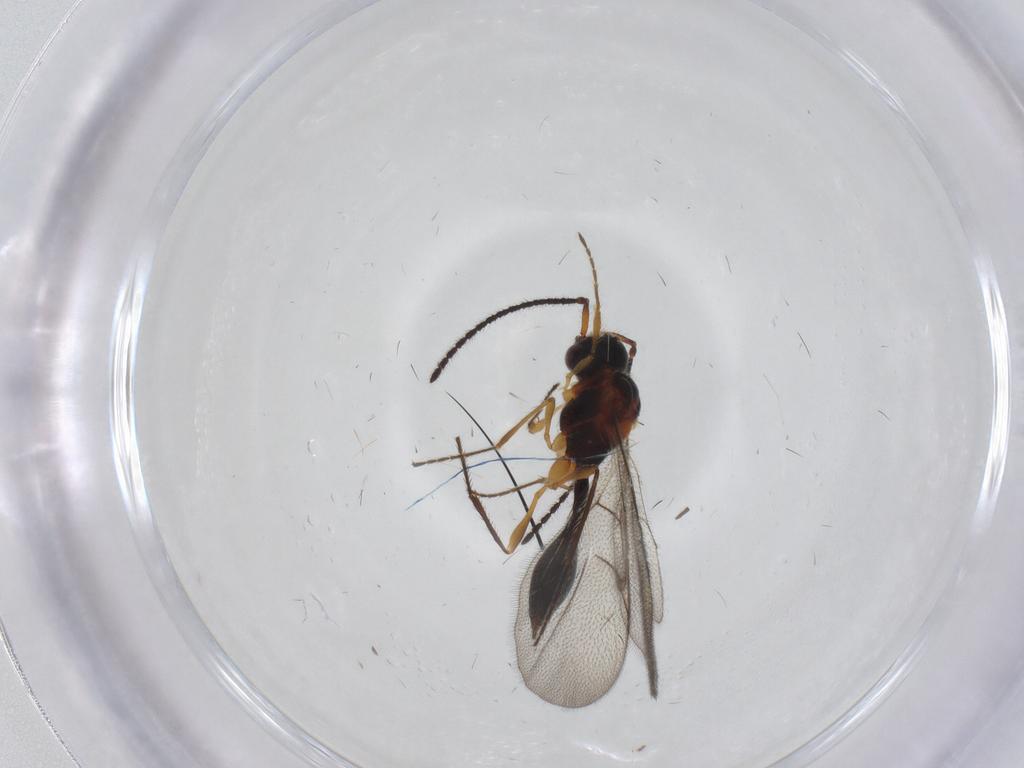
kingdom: Animalia
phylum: Arthropoda
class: Insecta
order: Hymenoptera
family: Diapriidae
